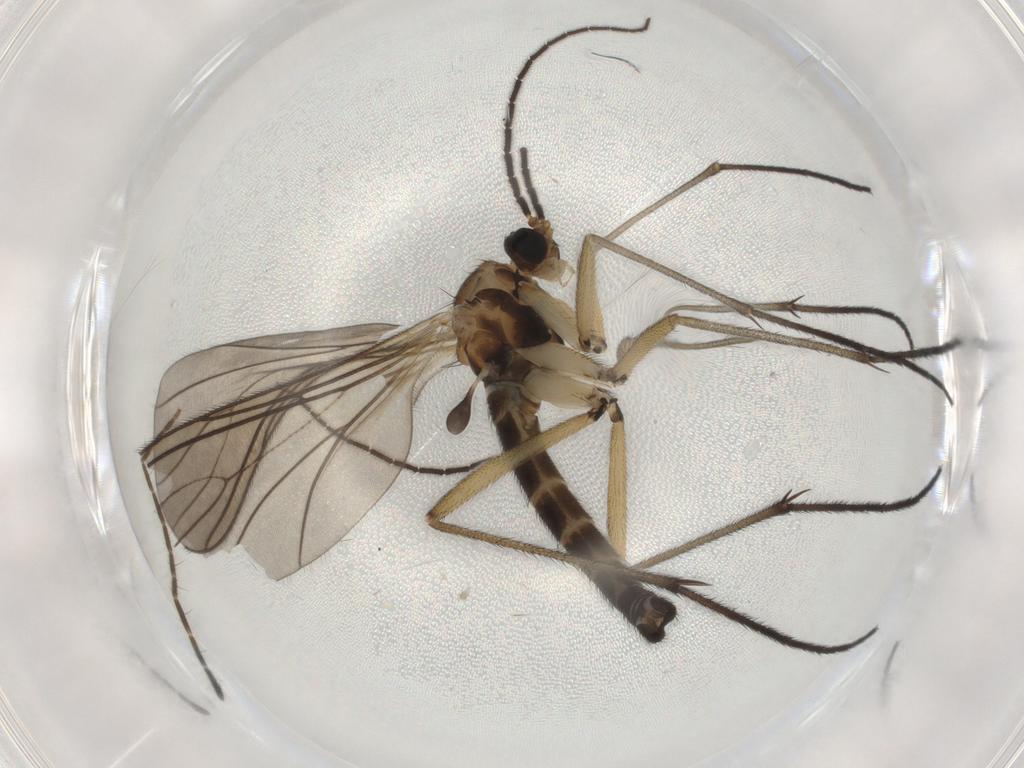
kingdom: Animalia
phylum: Arthropoda
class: Insecta
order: Diptera
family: Sciaridae
